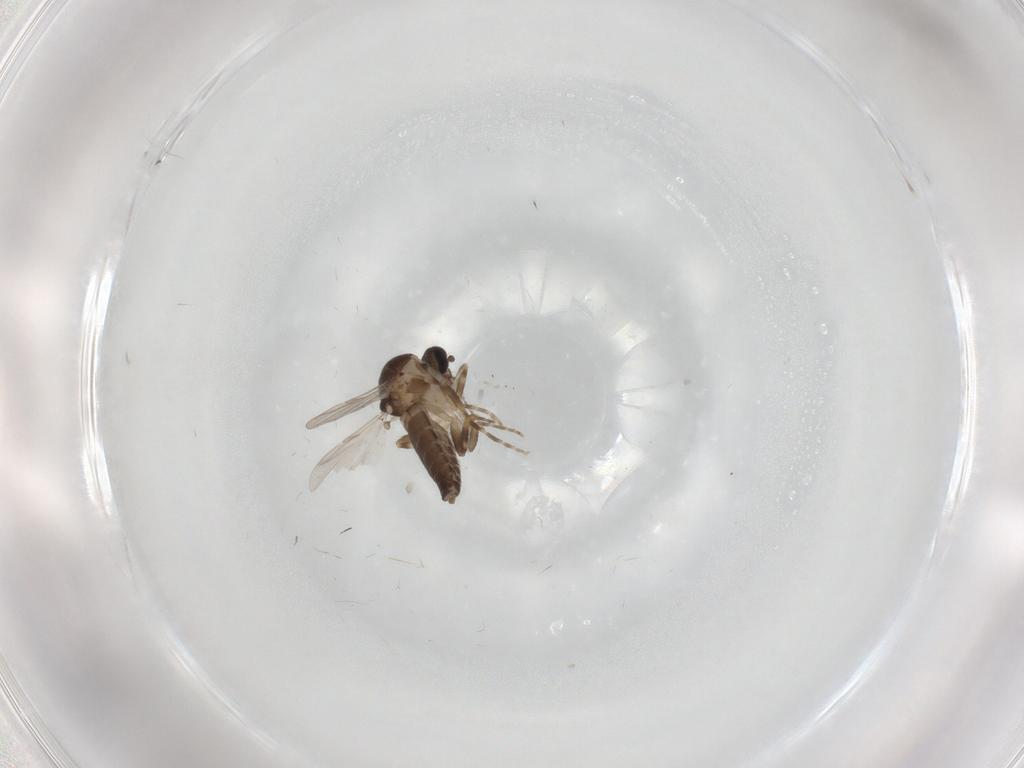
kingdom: Animalia
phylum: Arthropoda
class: Insecta
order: Diptera
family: Ceratopogonidae
